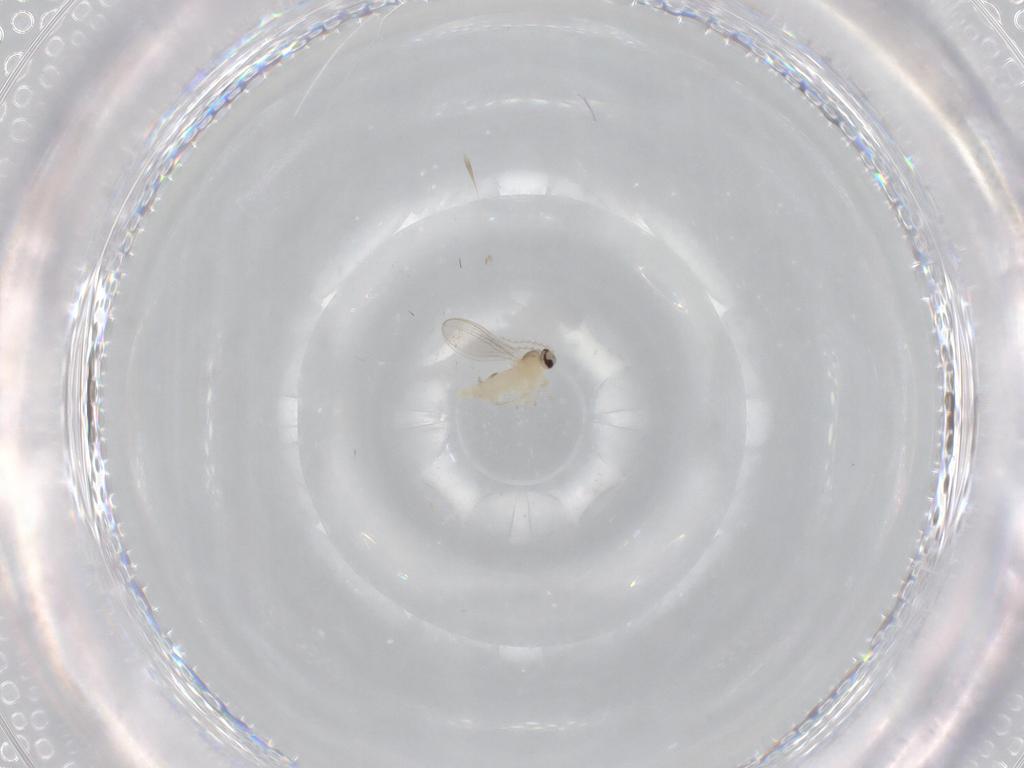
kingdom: Animalia
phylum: Arthropoda
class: Insecta
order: Diptera
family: Cecidomyiidae
